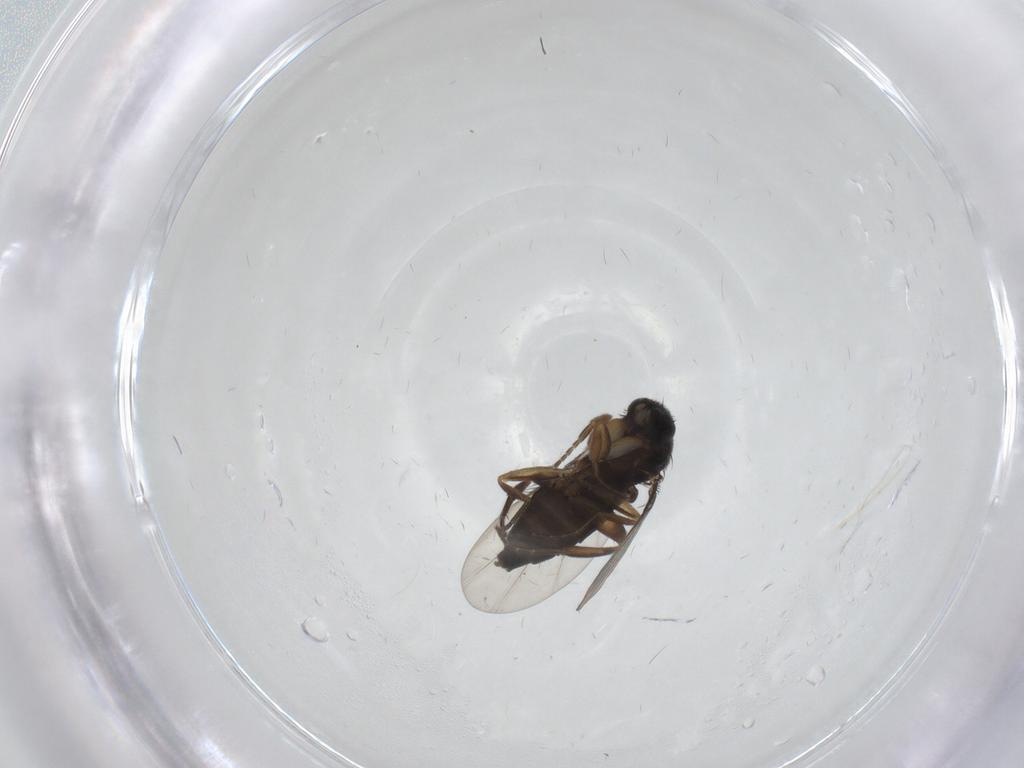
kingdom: Animalia
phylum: Arthropoda
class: Insecta
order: Diptera
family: Phoridae
